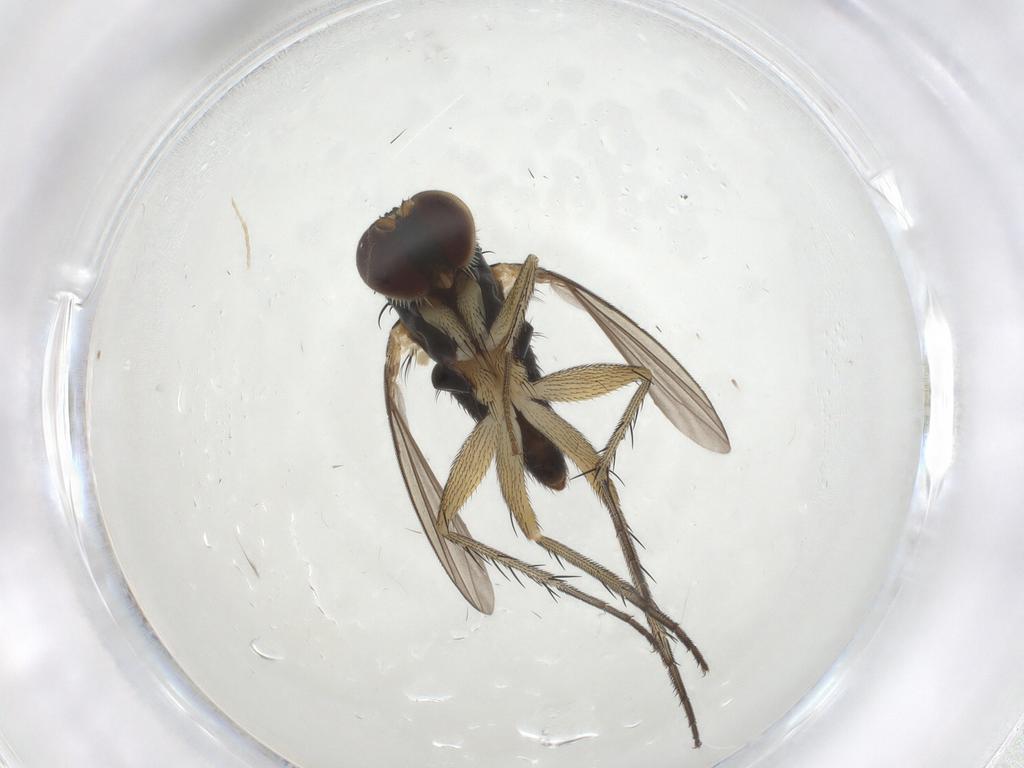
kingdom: Animalia
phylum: Arthropoda
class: Insecta
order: Diptera
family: Dolichopodidae
